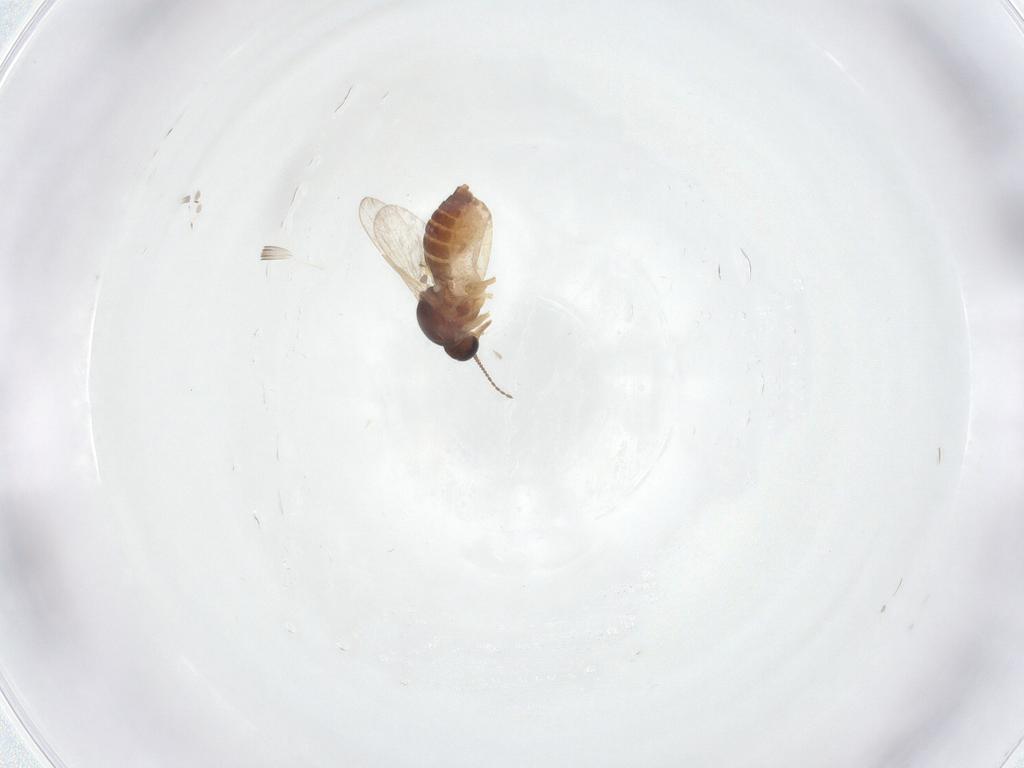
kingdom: Animalia
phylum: Arthropoda
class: Insecta
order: Diptera
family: Ceratopogonidae
